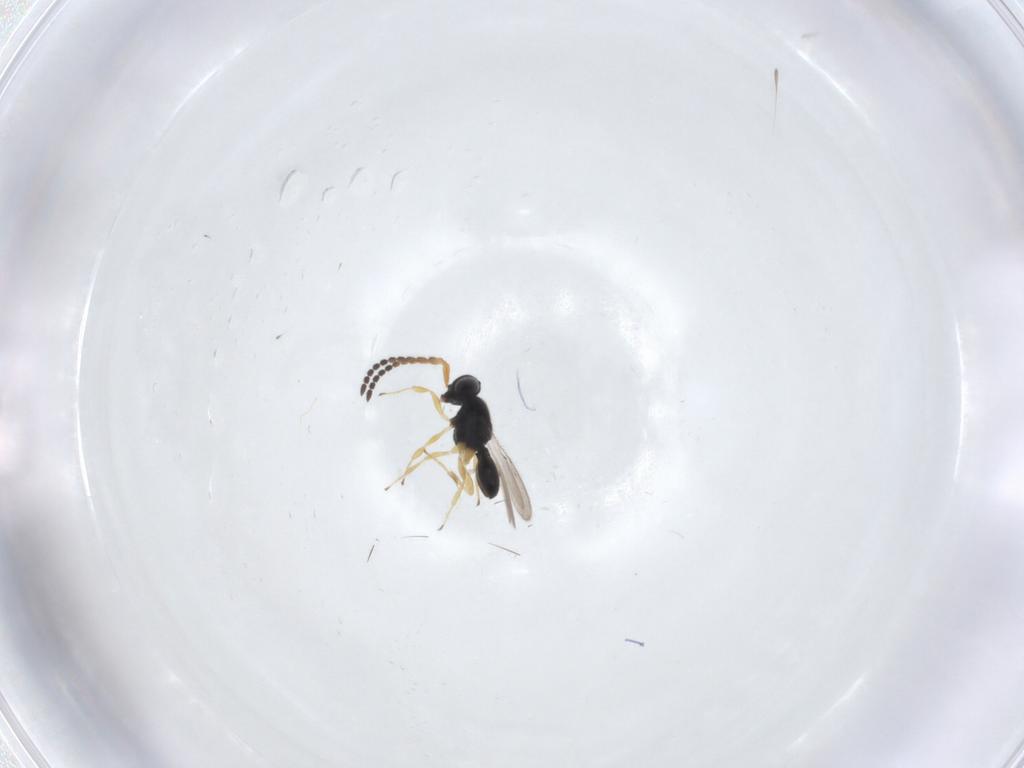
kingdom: Animalia
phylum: Arthropoda
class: Insecta
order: Hymenoptera
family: Scelionidae
